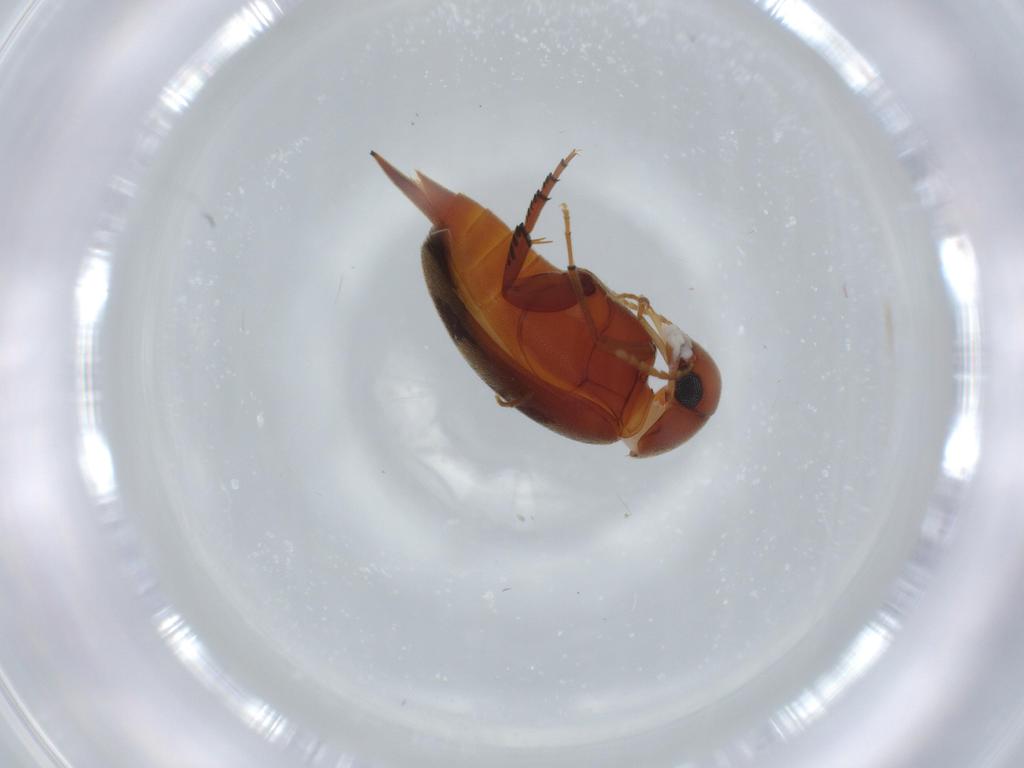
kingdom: Animalia
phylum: Arthropoda
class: Insecta
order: Coleoptera
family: Mordellidae
